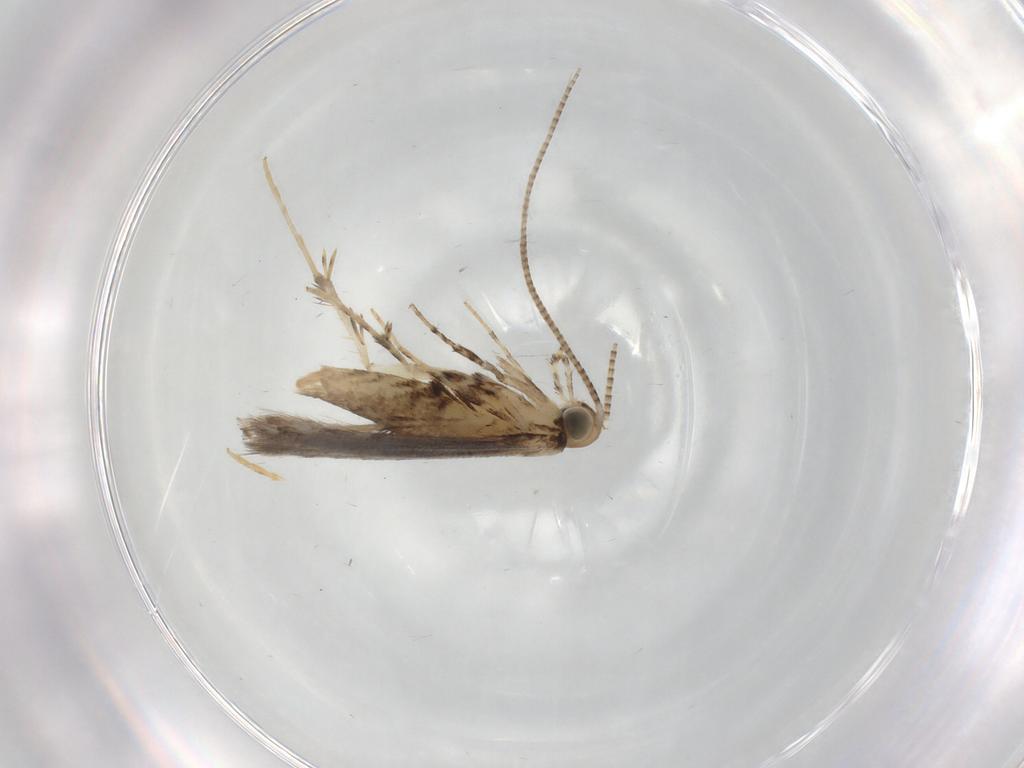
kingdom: Animalia
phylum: Arthropoda
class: Insecta
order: Lepidoptera
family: Gracillariidae
